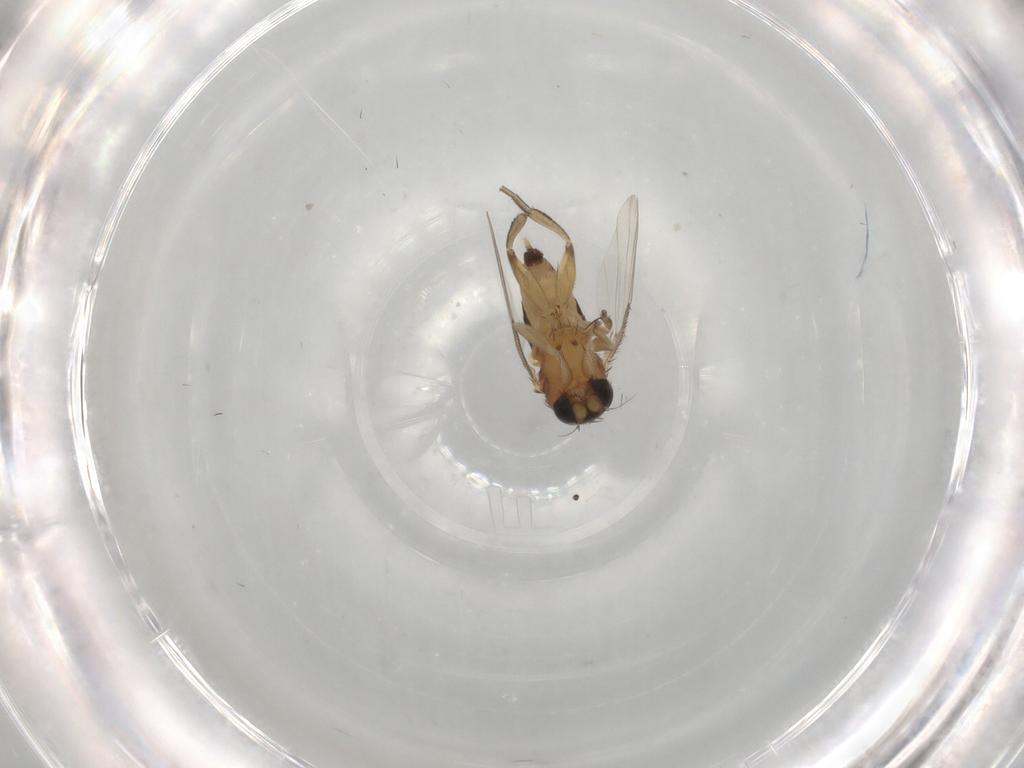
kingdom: Animalia
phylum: Arthropoda
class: Insecta
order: Diptera
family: Phoridae
